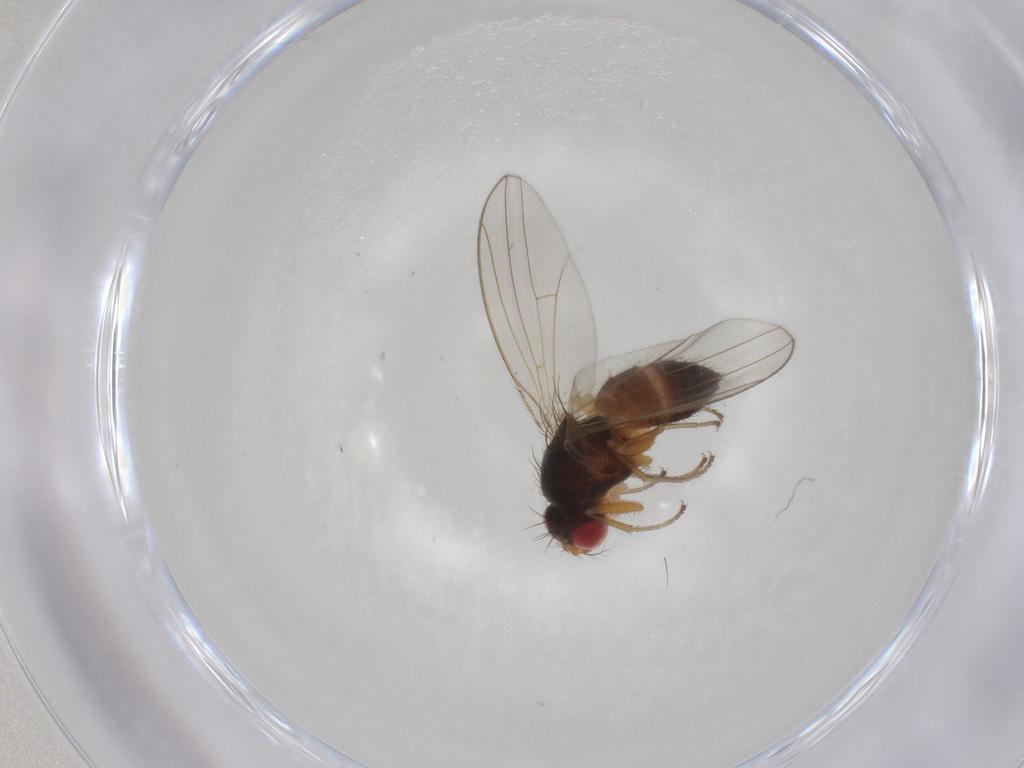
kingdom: Animalia
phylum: Arthropoda
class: Insecta
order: Diptera
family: Drosophilidae
